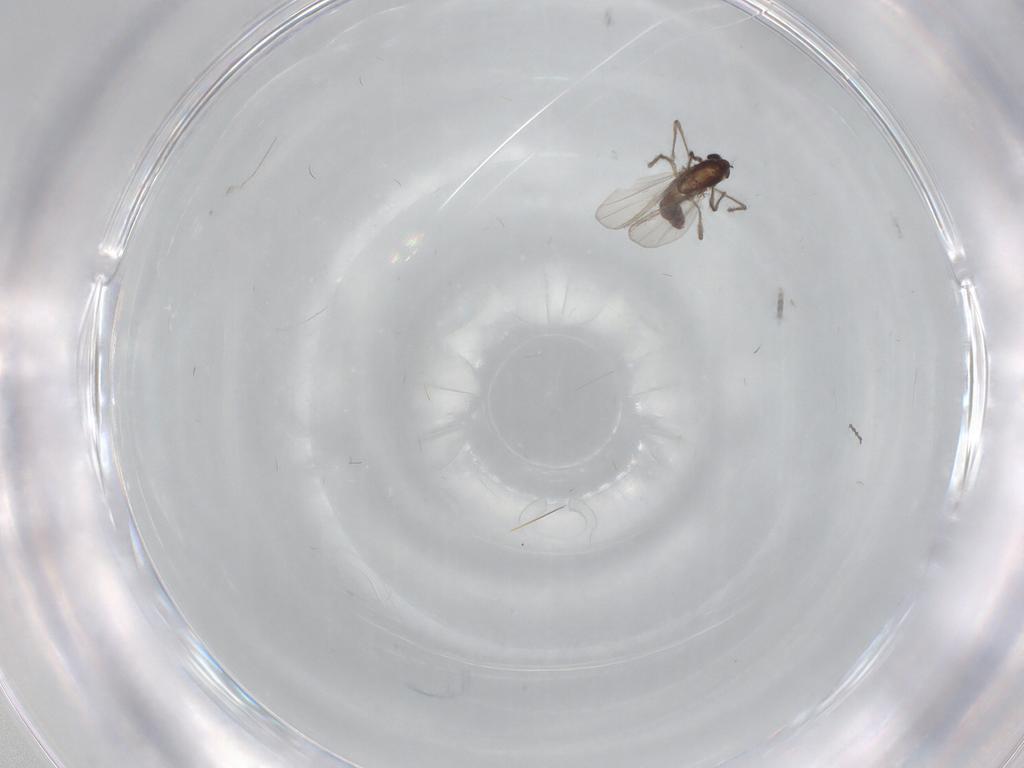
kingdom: Animalia
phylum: Arthropoda
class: Insecta
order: Diptera
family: Chironomidae
